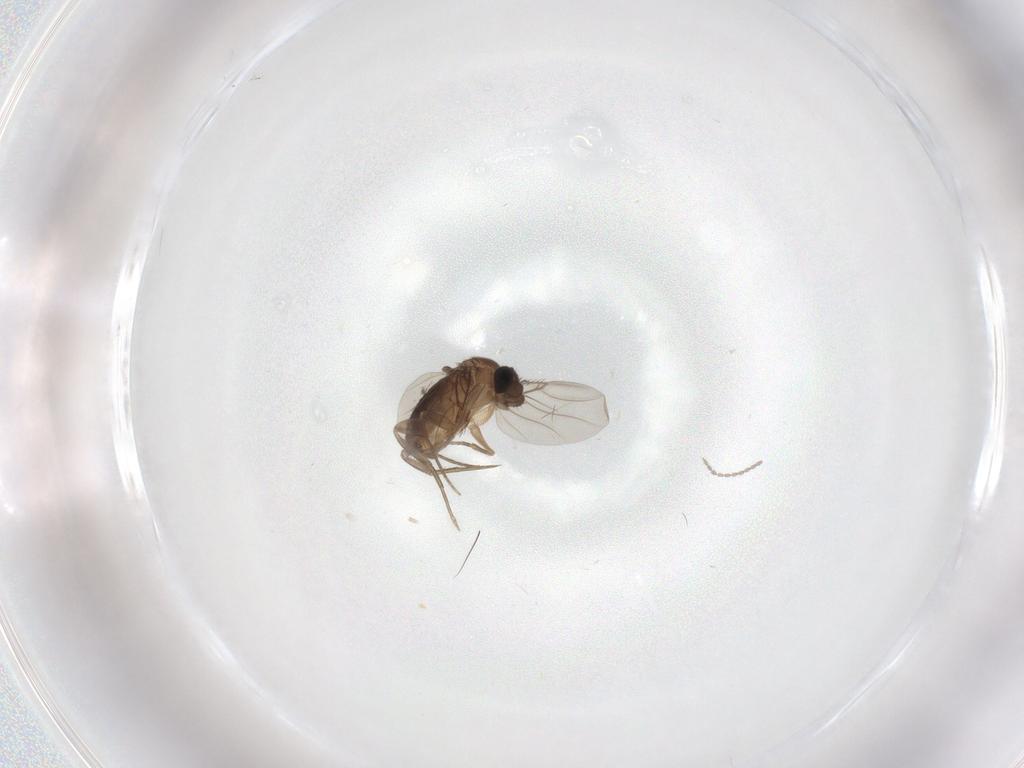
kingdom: Animalia
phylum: Arthropoda
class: Insecta
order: Diptera
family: Phoridae
